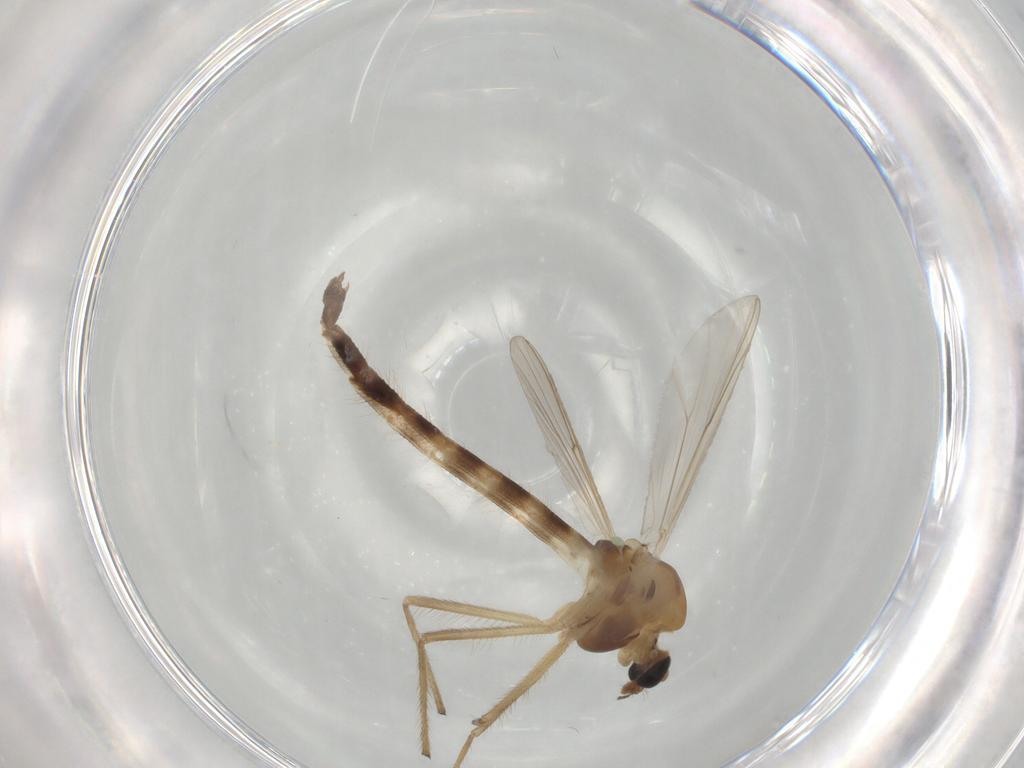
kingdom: Animalia
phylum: Arthropoda
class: Insecta
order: Diptera
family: Chironomidae
